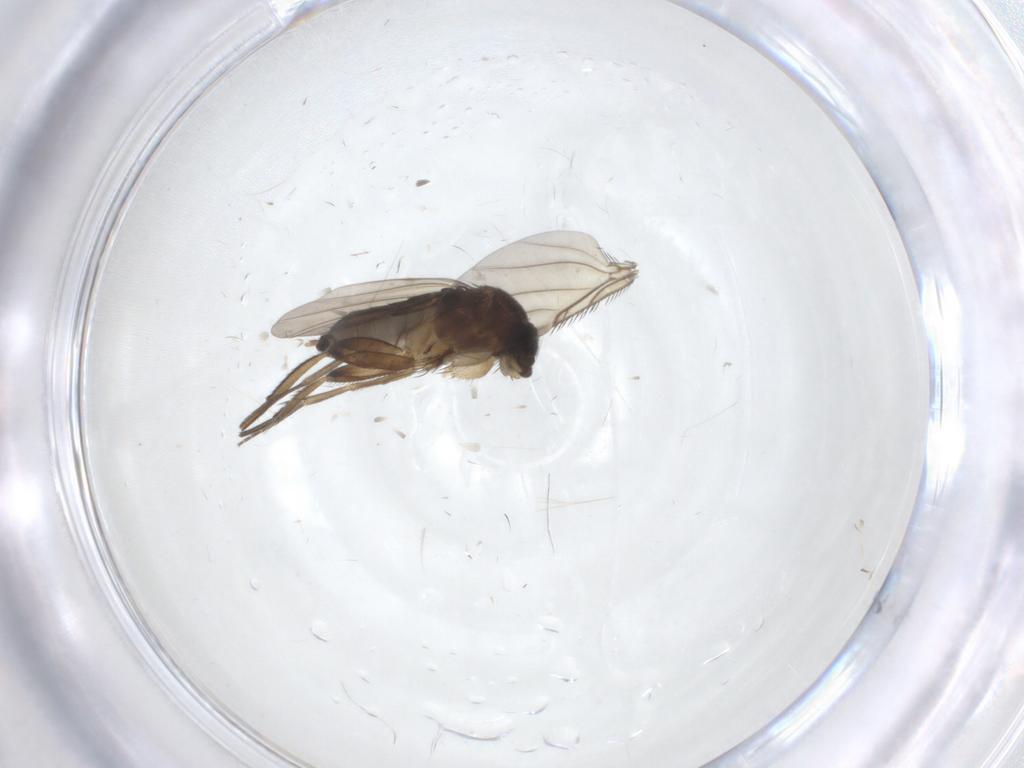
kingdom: Animalia
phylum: Arthropoda
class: Insecta
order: Diptera
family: Phoridae
